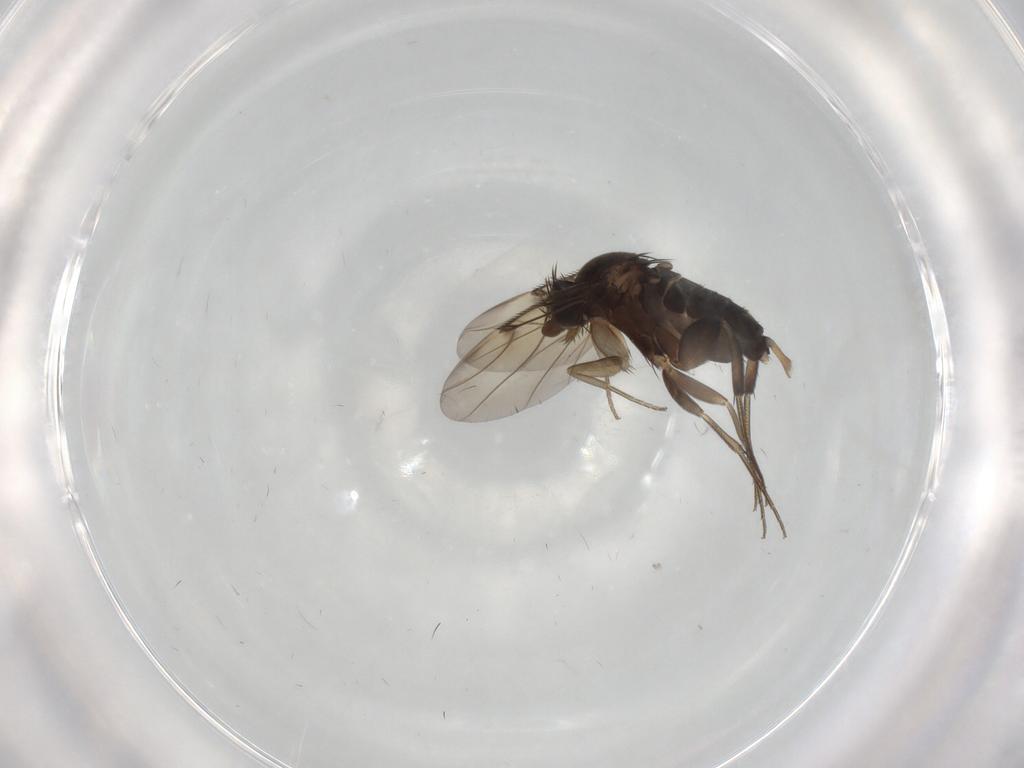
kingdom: Animalia
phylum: Arthropoda
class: Insecta
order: Diptera
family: Phoridae
